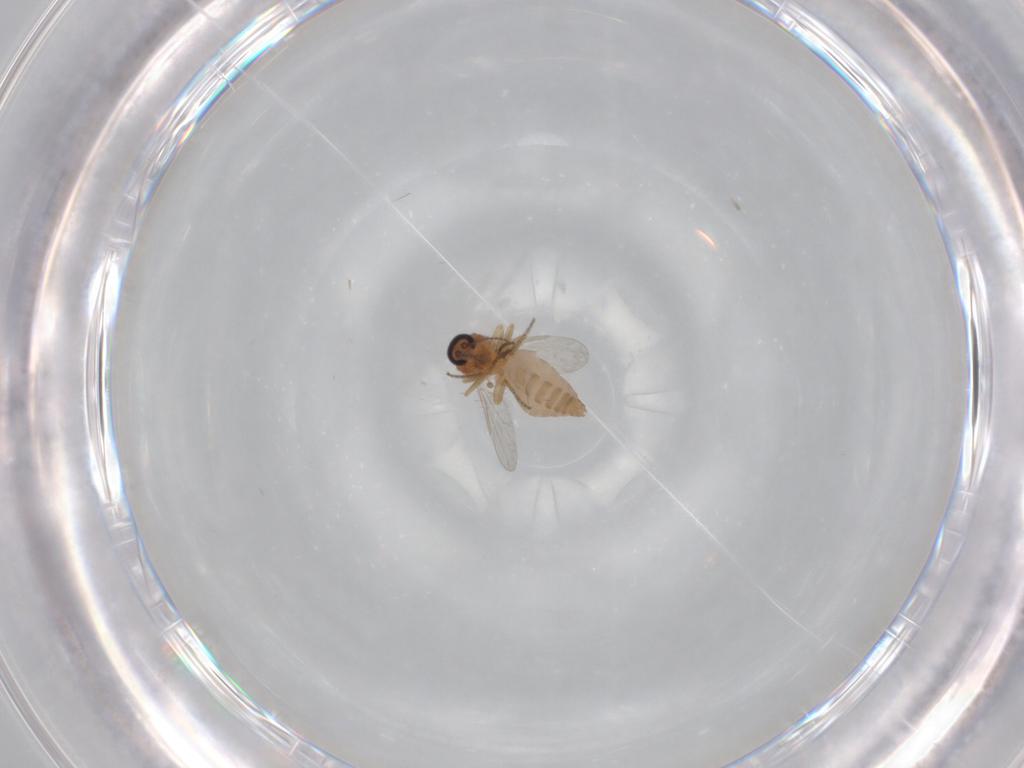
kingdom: Animalia
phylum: Arthropoda
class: Insecta
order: Diptera
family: Ceratopogonidae
